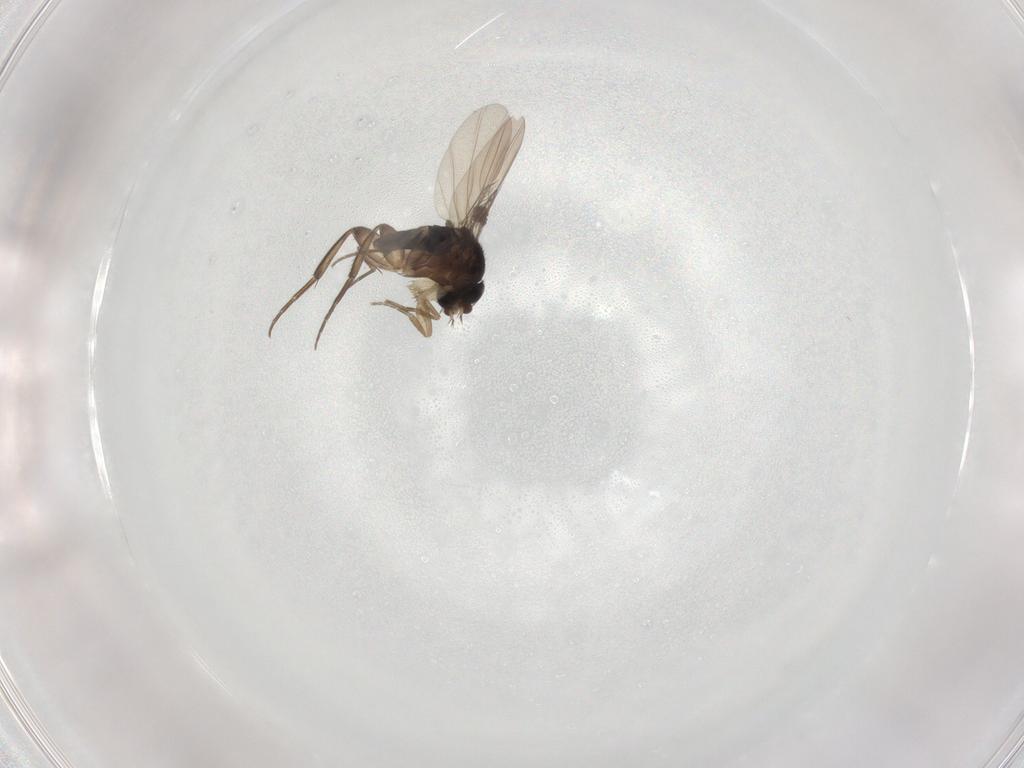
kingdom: Animalia
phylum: Arthropoda
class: Insecta
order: Diptera
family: Phoridae
